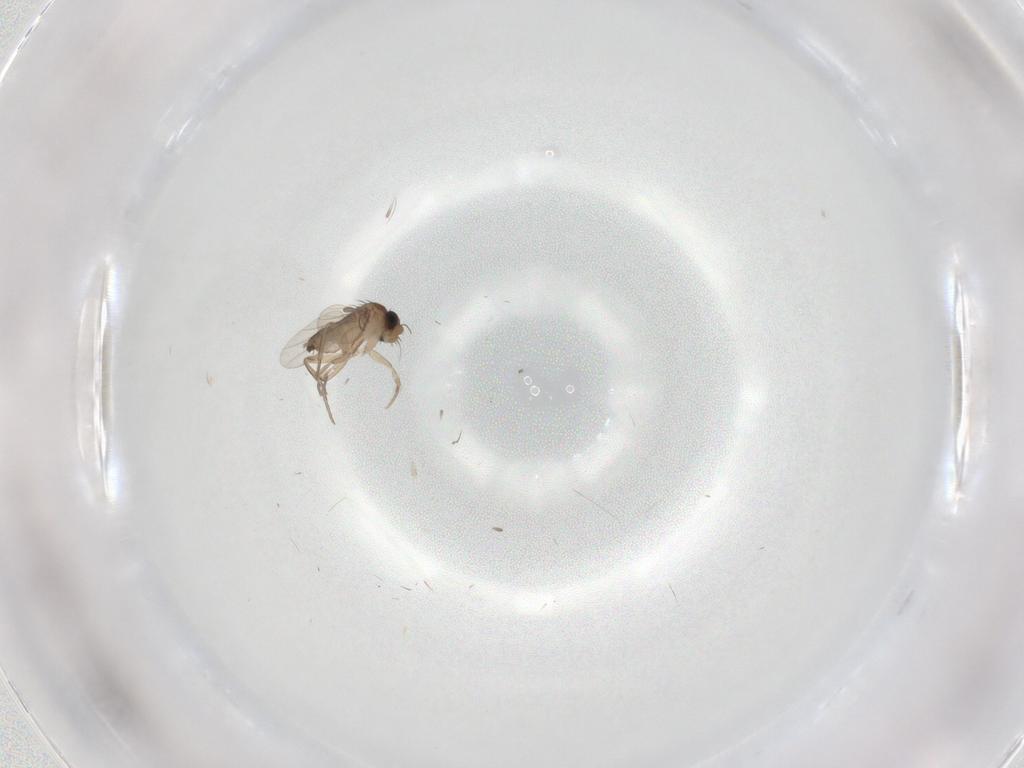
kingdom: Animalia
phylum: Arthropoda
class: Insecta
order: Diptera
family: Phoridae
